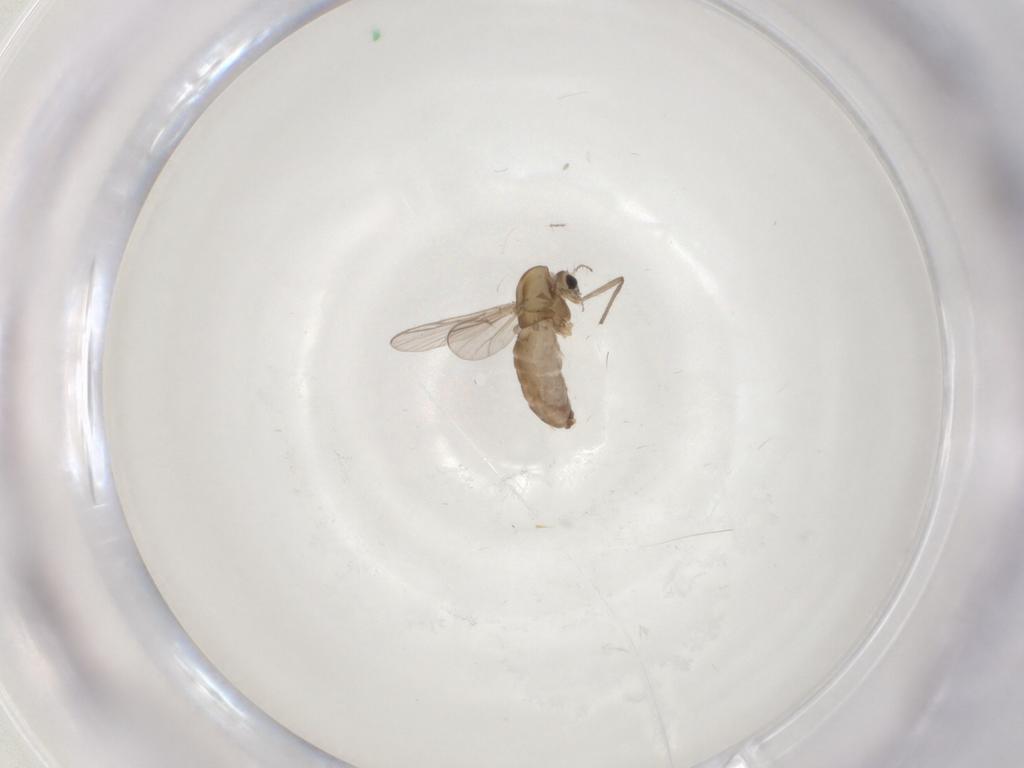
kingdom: Animalia
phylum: Arthropoda
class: Insecta
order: Diptera
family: Chironomidae
